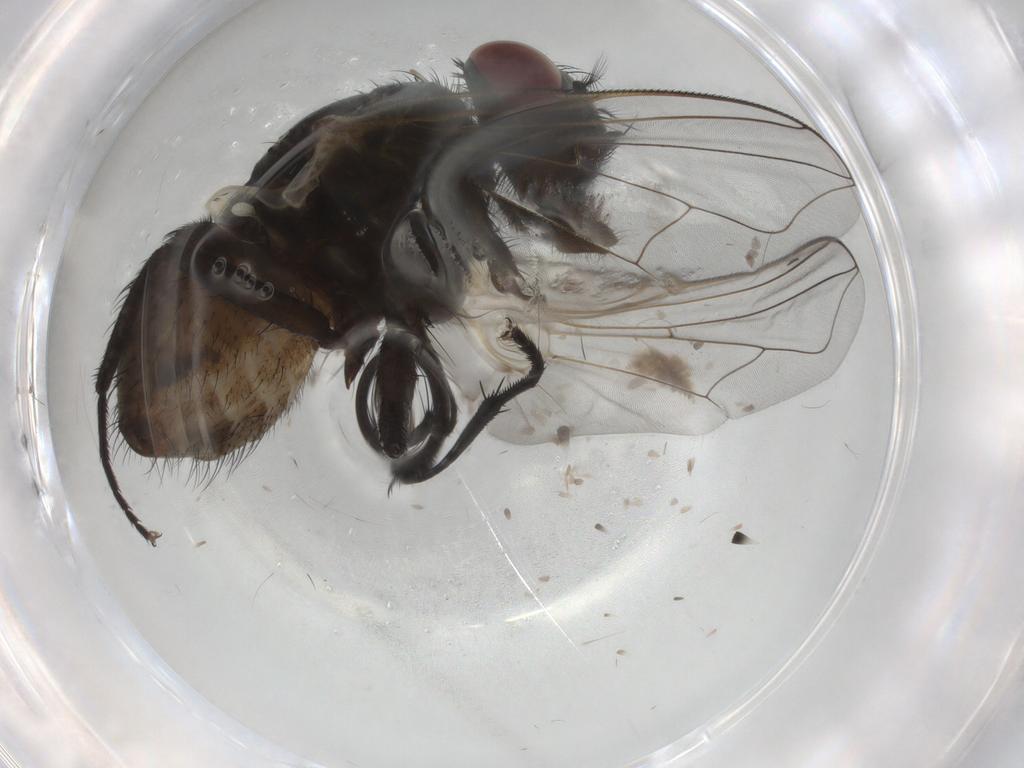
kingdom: Animalia
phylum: Arthropoda
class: Insecta
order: Diptera
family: Muscidae
